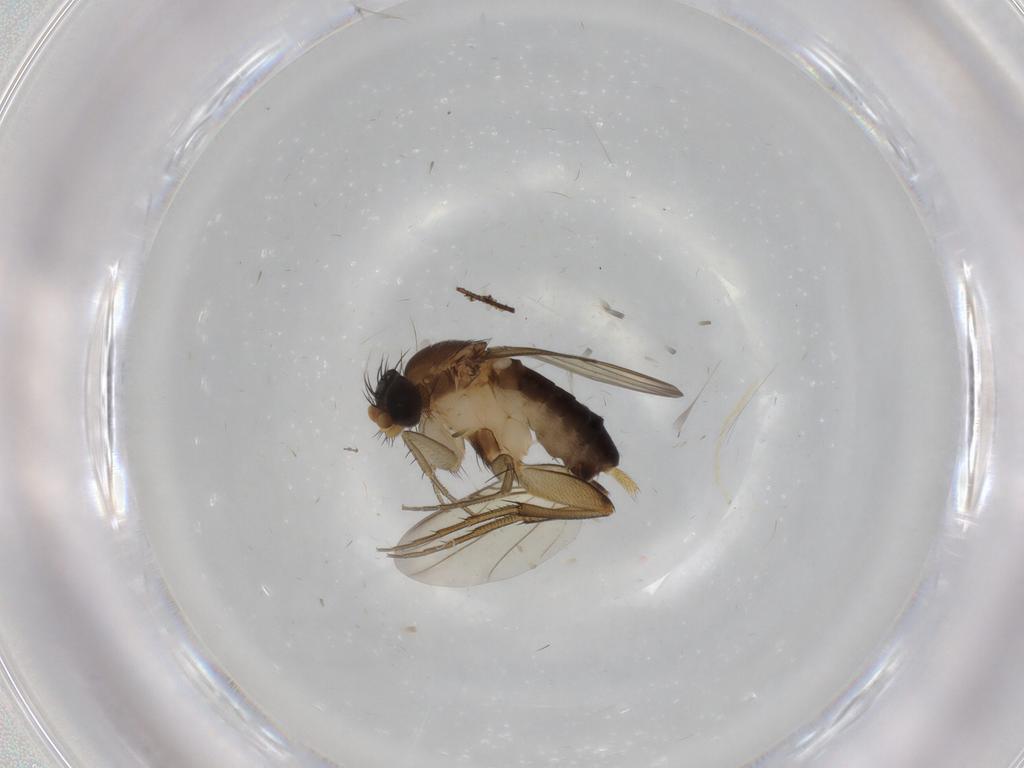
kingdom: Animalia
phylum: Arthropoda
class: Insecta
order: Diptera
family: Phoridae
